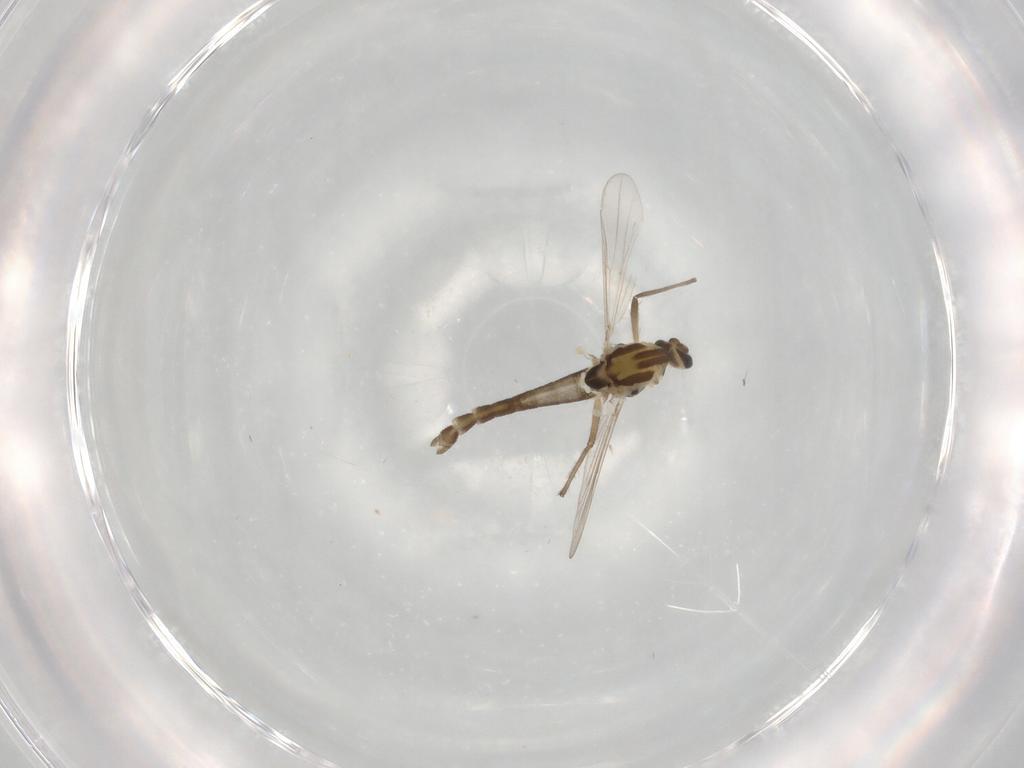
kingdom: Animalia
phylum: Arthropoda
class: Insecta
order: Diptera
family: Chironomidae
